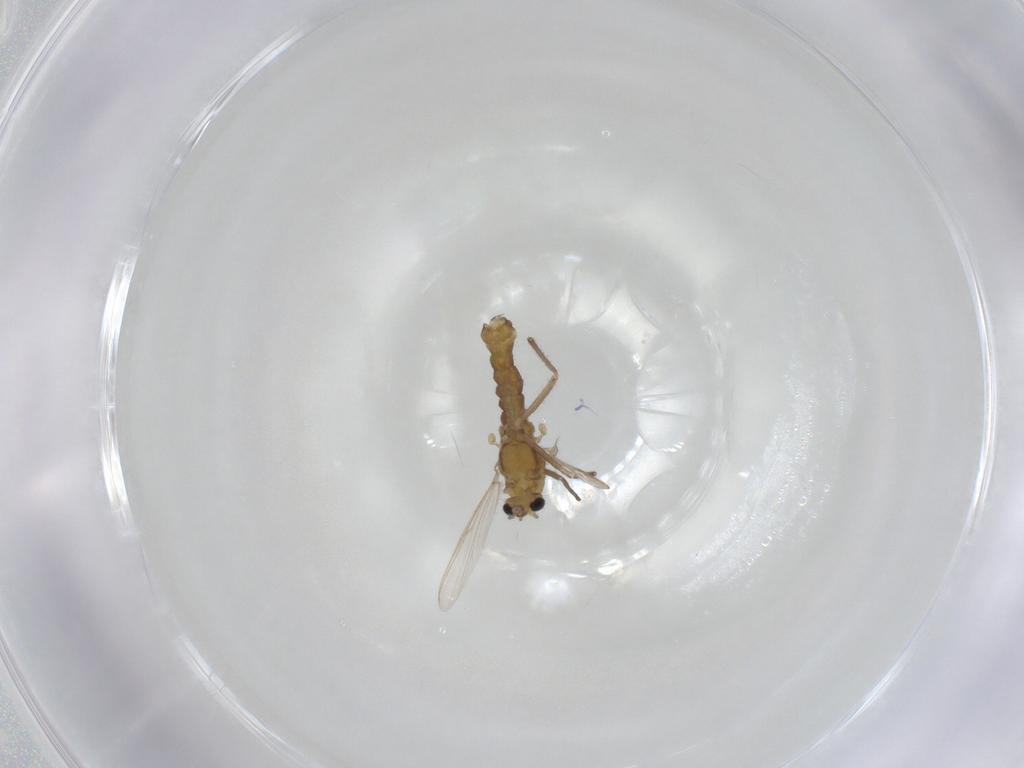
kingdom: Animalia
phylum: Arthropoda
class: Insecta
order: Diptera
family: Chironomidae
